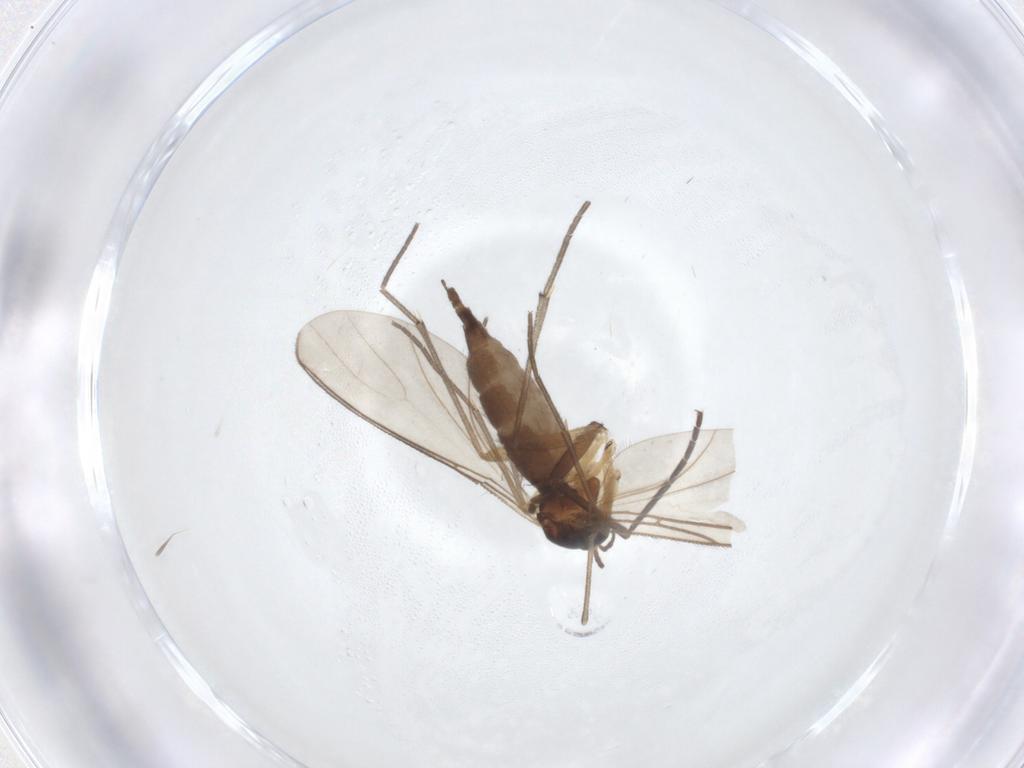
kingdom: Animalia
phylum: Arthropoda
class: Insecta
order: Diptera
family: Sciaridae
